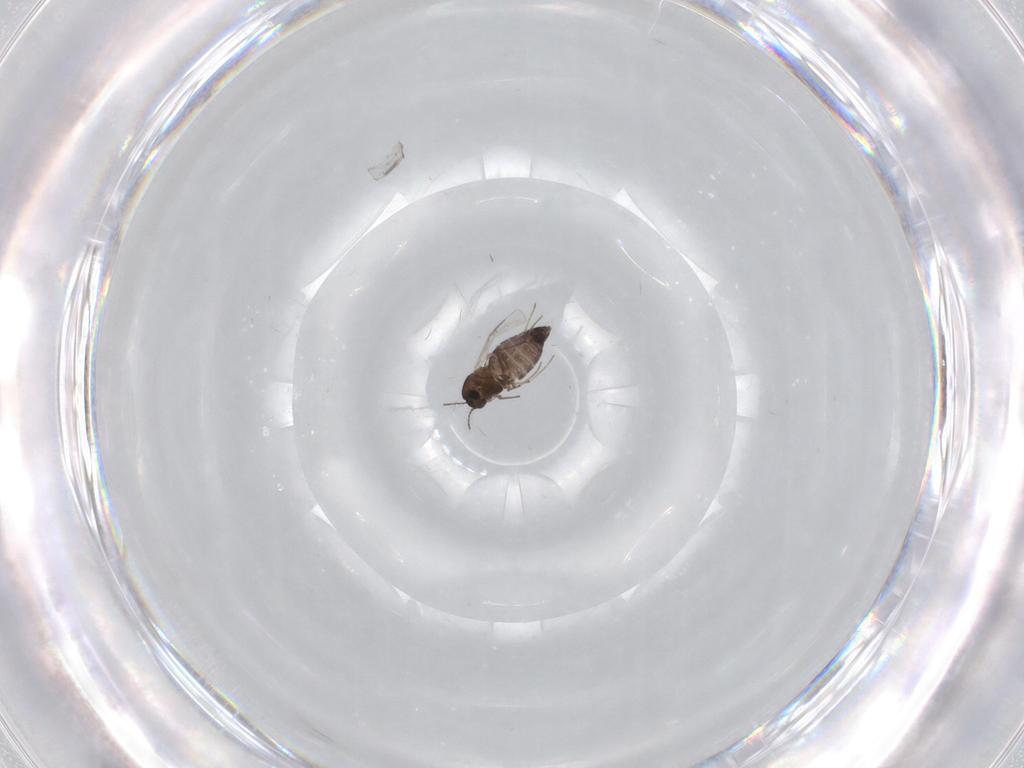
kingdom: Animalia
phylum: Arthropoda
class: Insecta
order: Diptera
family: Chironomidae
